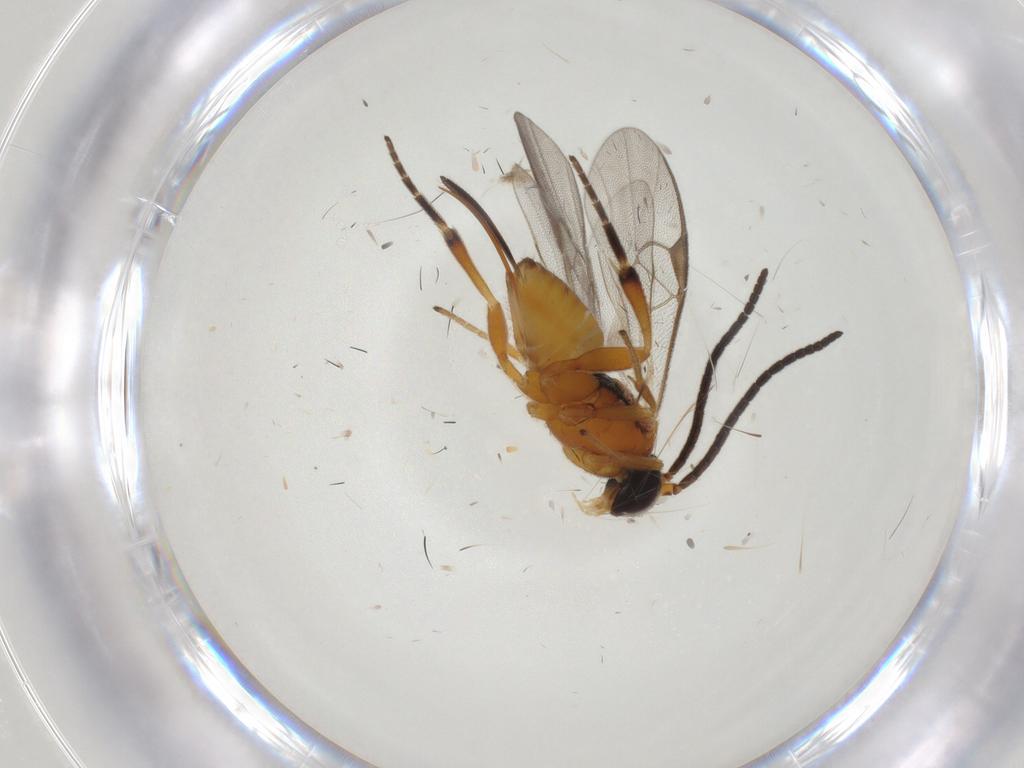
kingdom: Animalia
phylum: Arthropoda
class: Insecta
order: Hymenoptera
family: Braconidae
